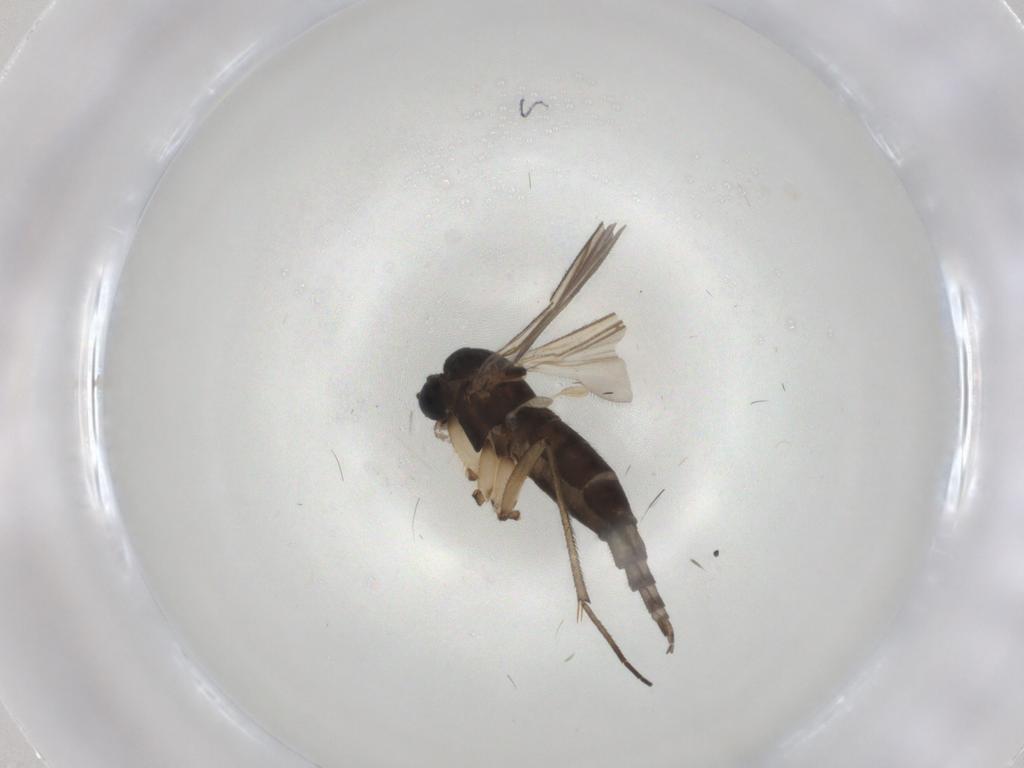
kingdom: Animalia
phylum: Arthropoda
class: Insecta
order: Diptera
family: Sciaridae
